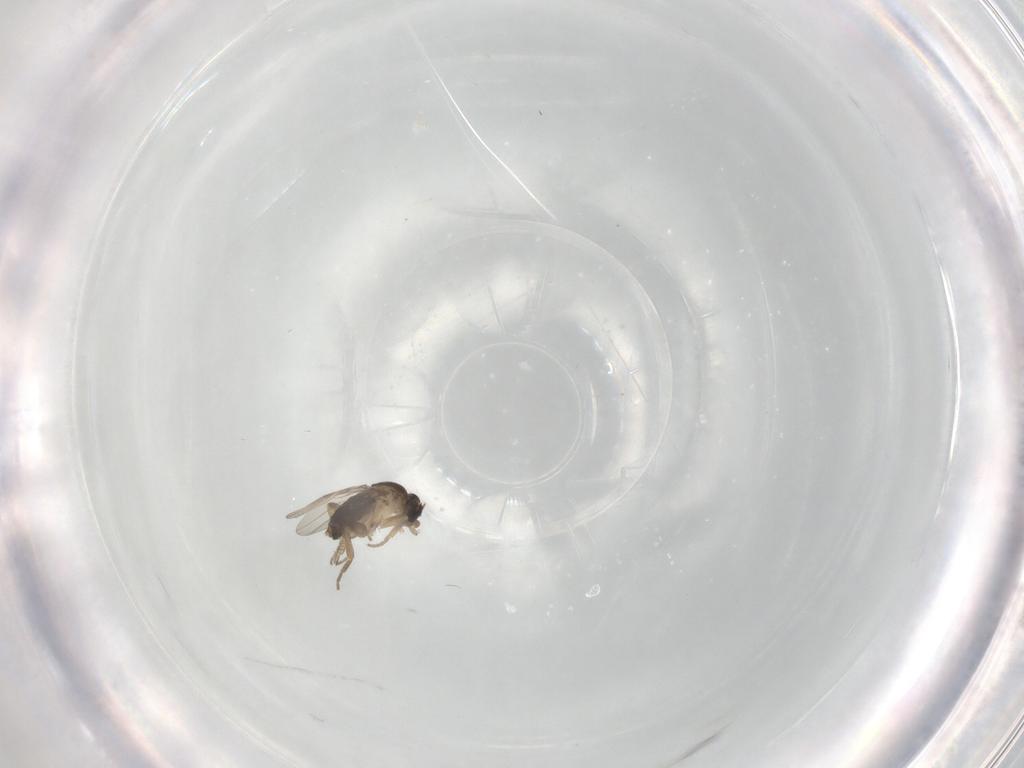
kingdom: Animalia
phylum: Arthropoda
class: Insecta
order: Diptera
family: Phoridae
